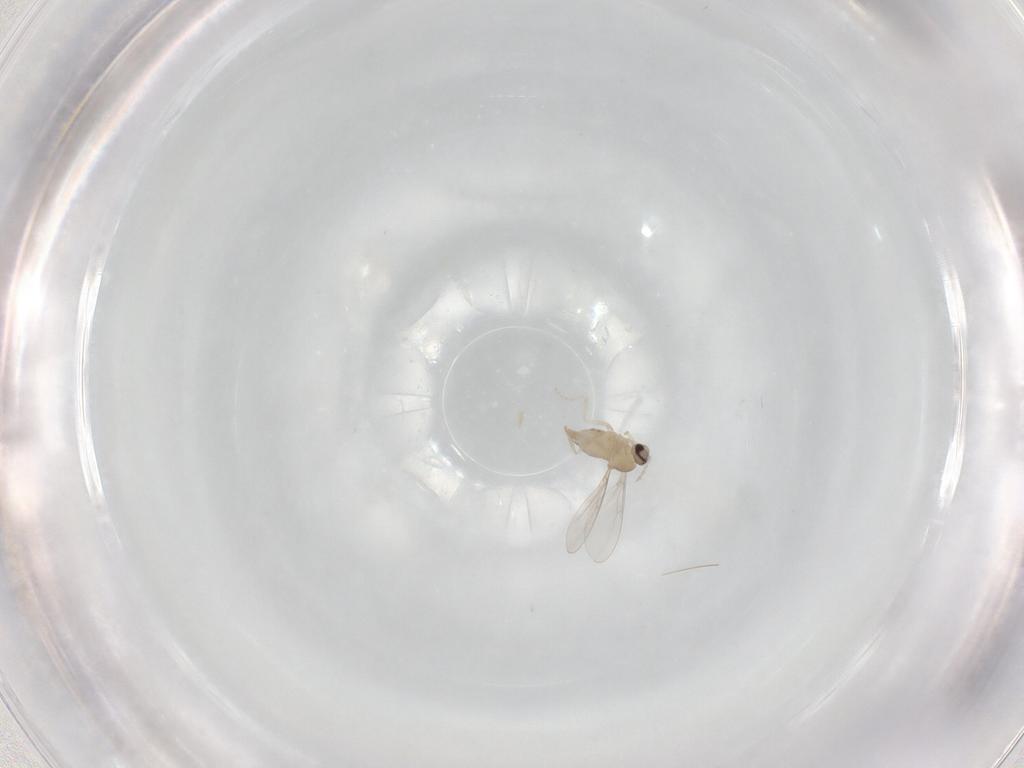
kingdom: Animalia
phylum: Arthropoda
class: Insecta
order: Diptera
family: Cecidomyiidae
